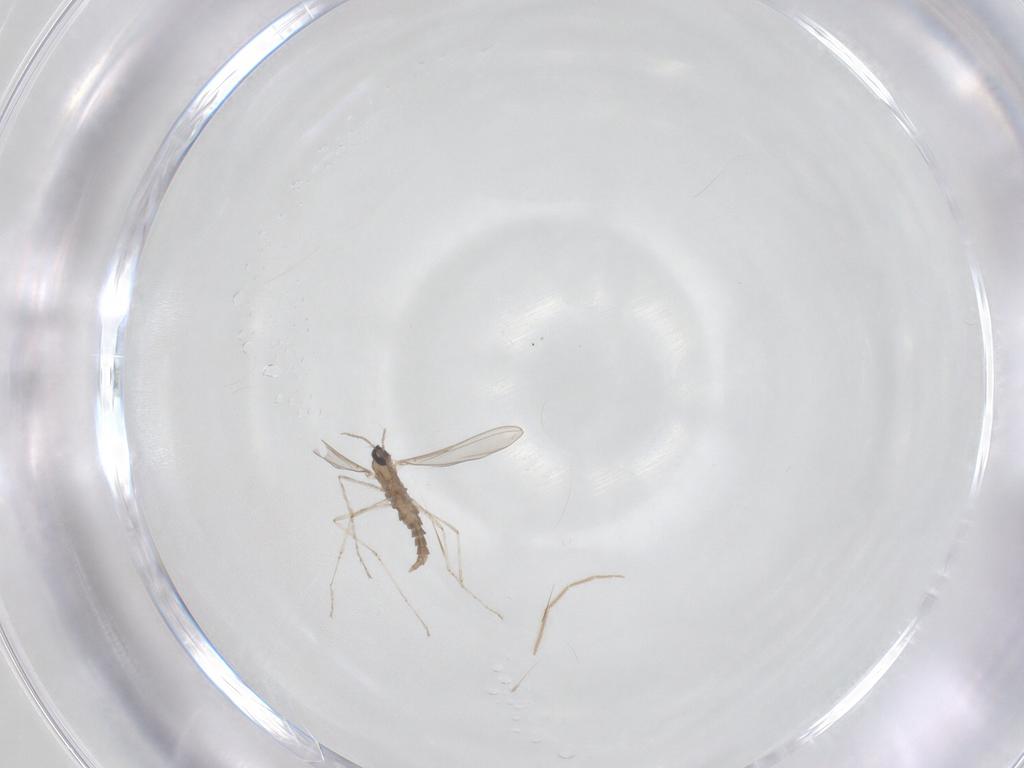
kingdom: Animalia
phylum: Arthropoda
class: Insecta
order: Diptera
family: Cecidomyiidae
